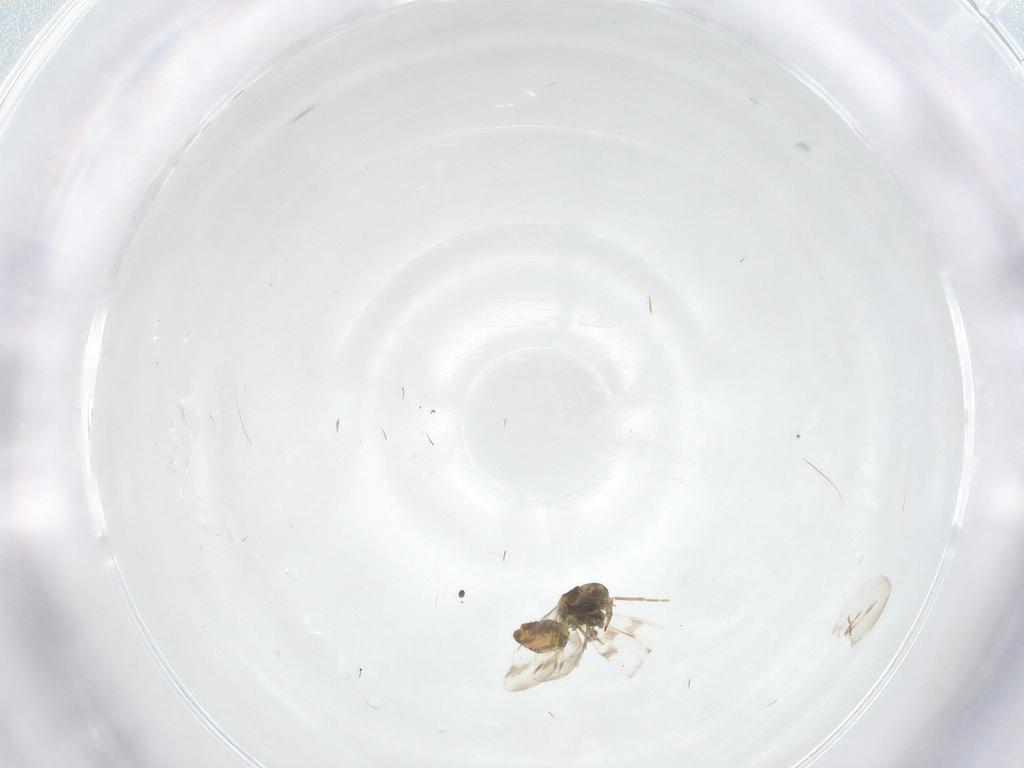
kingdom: Animalia
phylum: Arthropoda
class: Insecta
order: Hemiptera
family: Aleyrodidae
